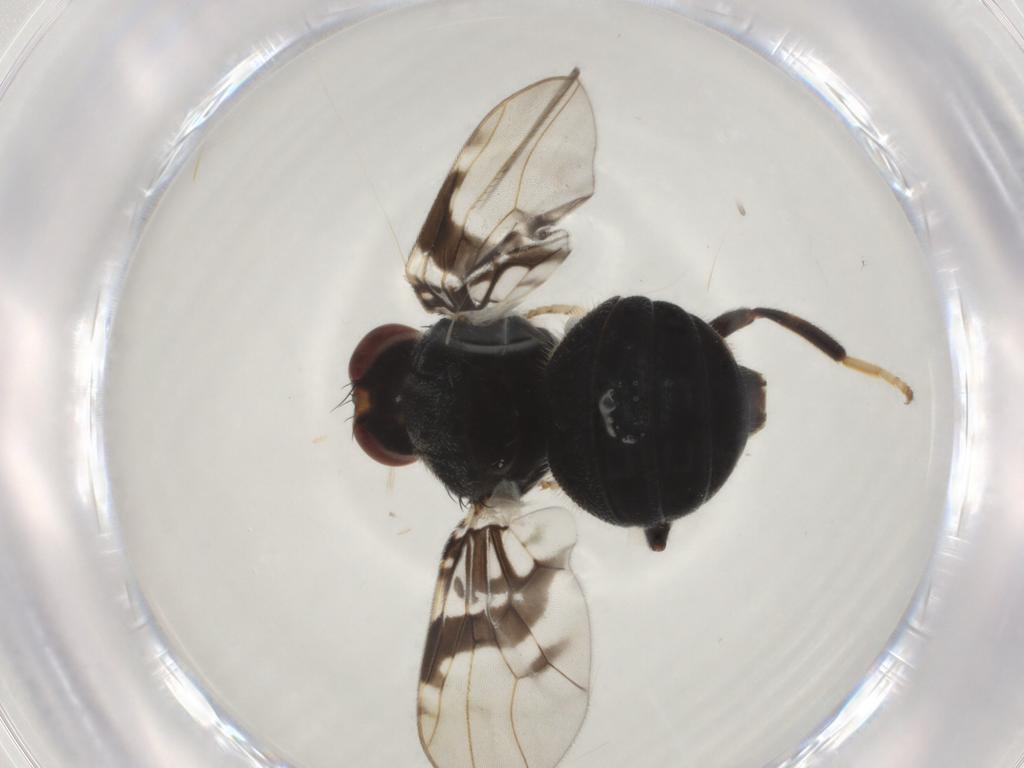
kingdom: Animalia
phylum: Arthropoda
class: Insecta
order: Diptera
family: Platystomatidae
